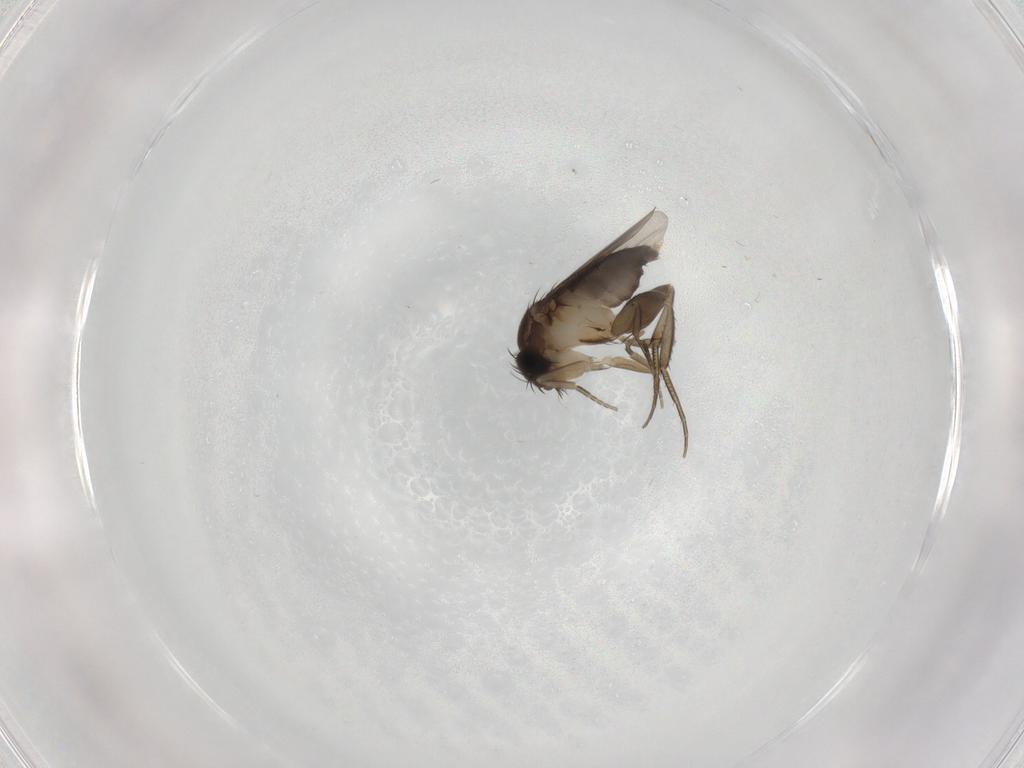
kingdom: Animalia
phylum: Arthropoda
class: Insecta
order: Diptera
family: Phoridae
